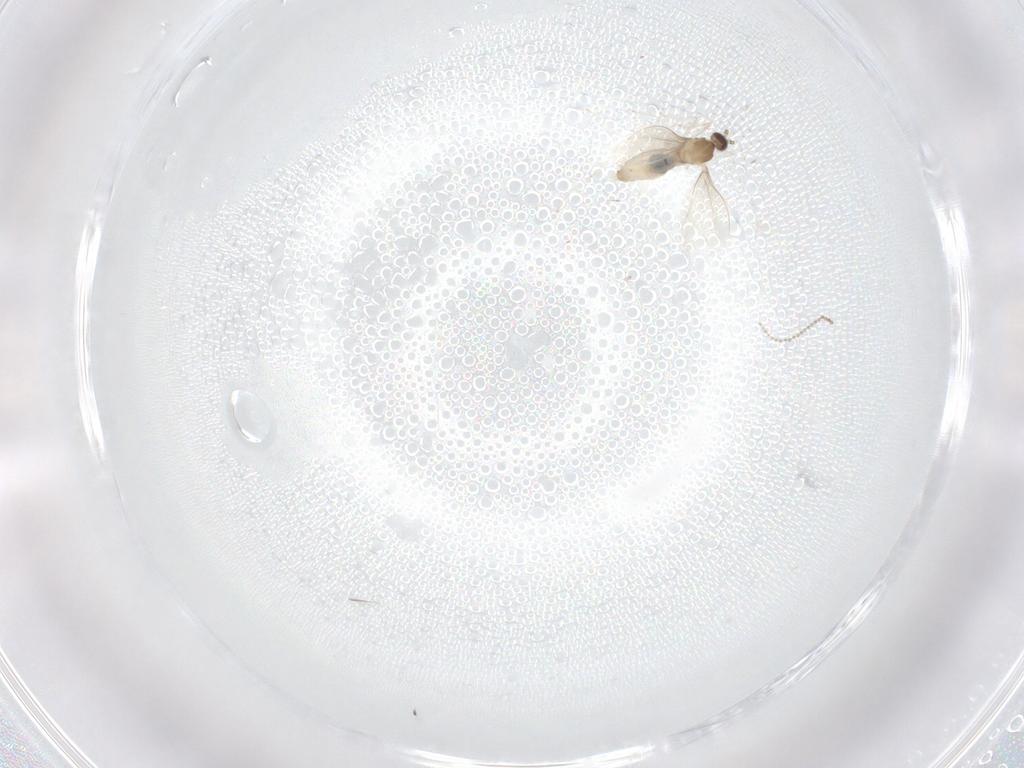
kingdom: Animalia
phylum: Arthropoda
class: Insecta
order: Diptera
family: Cecidomyiidae
